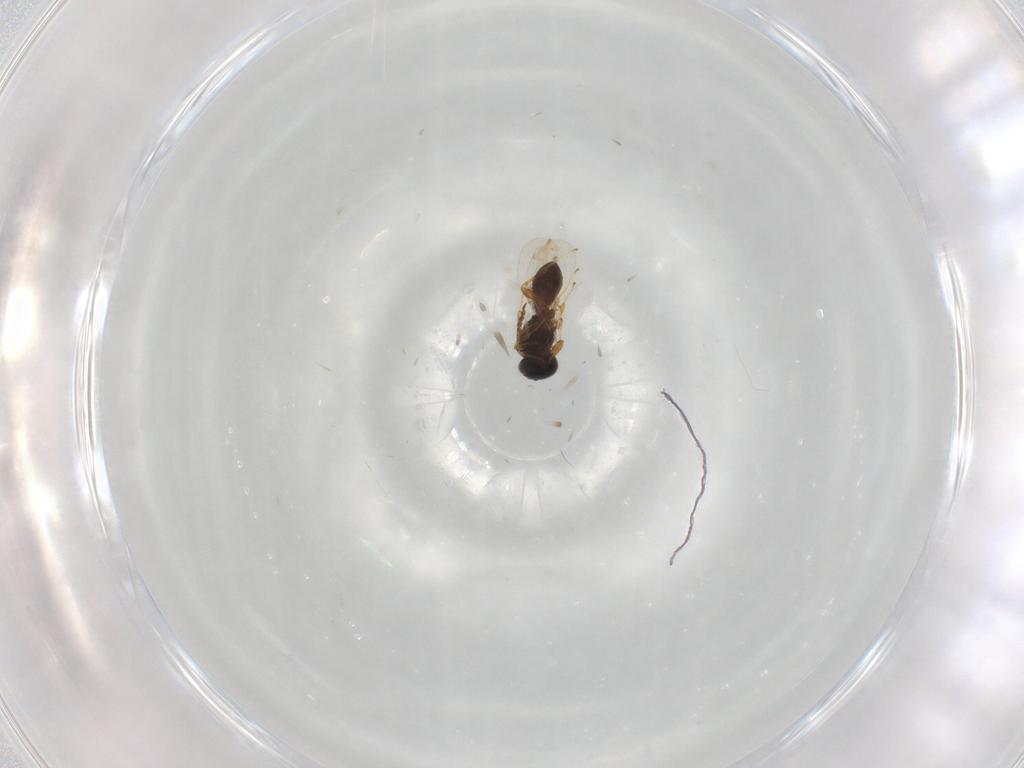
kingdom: Animalia
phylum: Arthropoda
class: Insecta
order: Hymenoptera
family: Platygastridae
